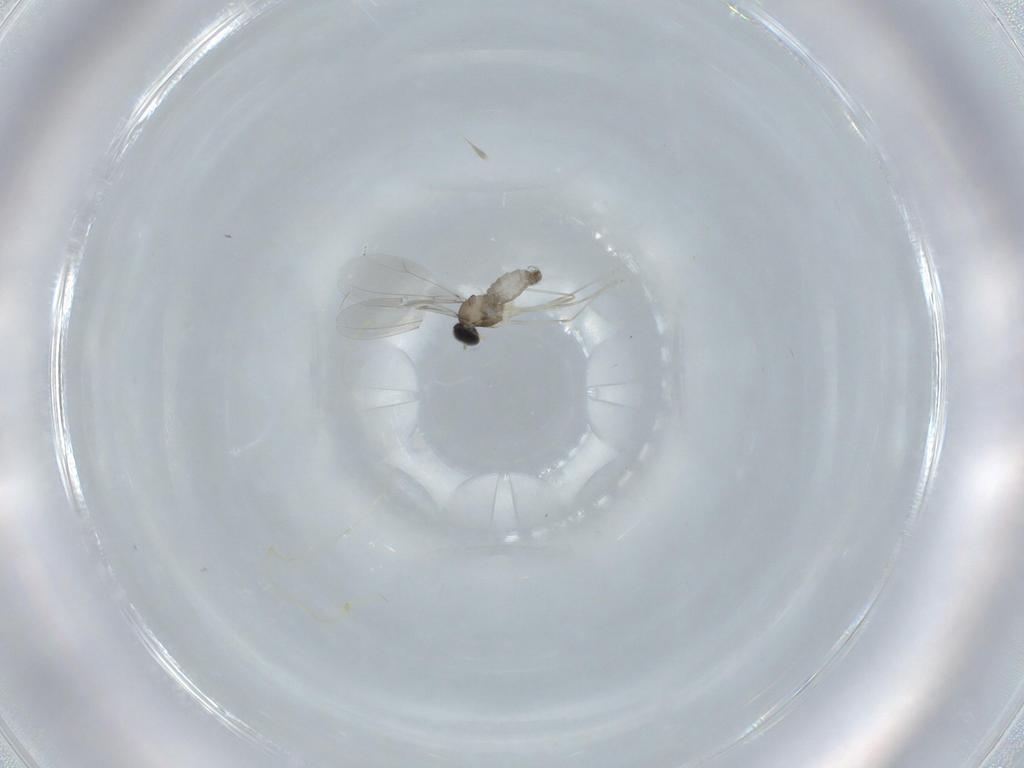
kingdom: Animalia
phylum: Arthropoda
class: Insecta
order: Diptera
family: Cecidomyiidae
